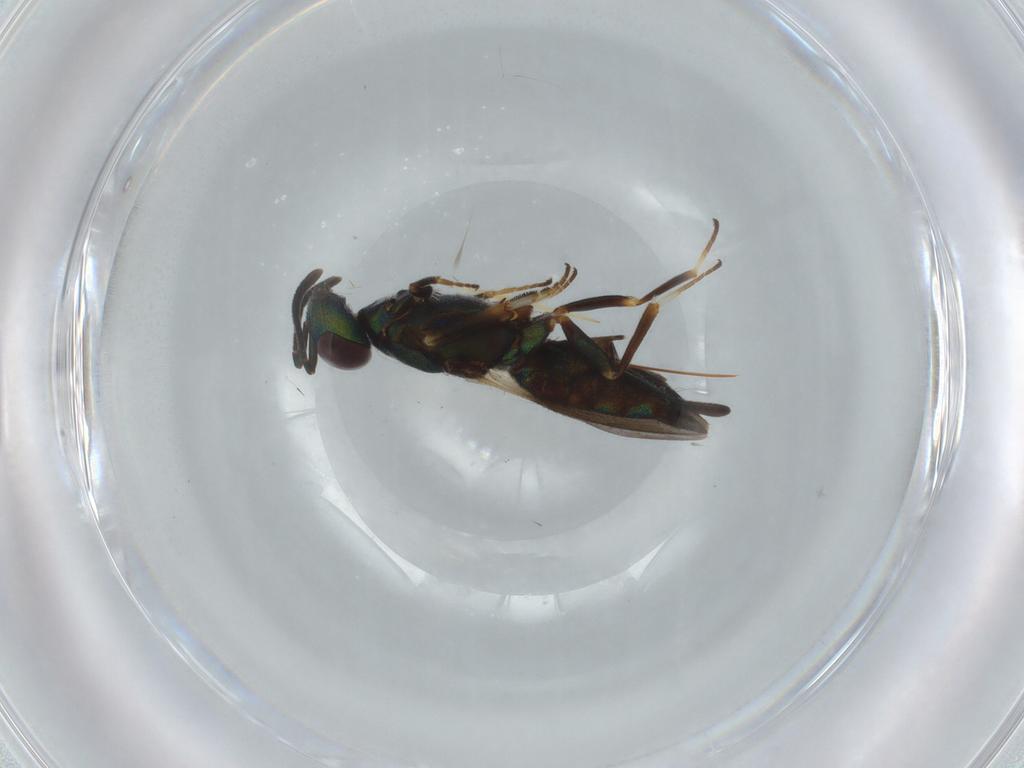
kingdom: Animalia
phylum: Arthropoda
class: Insecta
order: Hymenoptera
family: Eupelmidae
